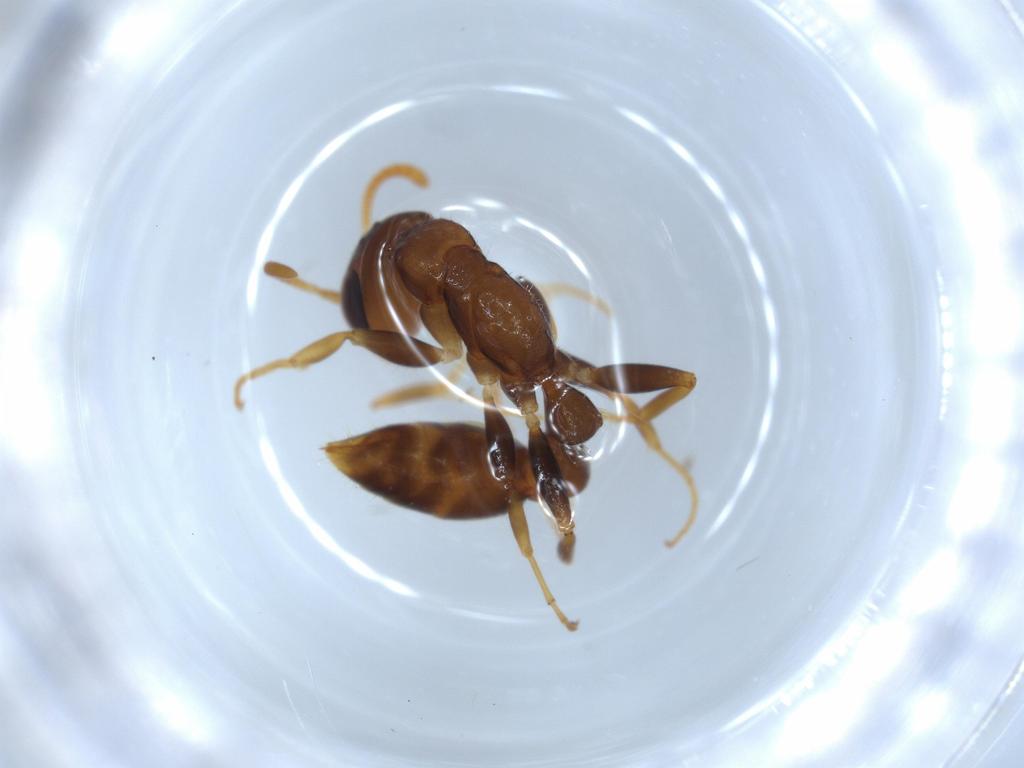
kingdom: Animalia
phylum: Arthropoda
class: Insecta
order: Hymenoptera
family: Formicidae
